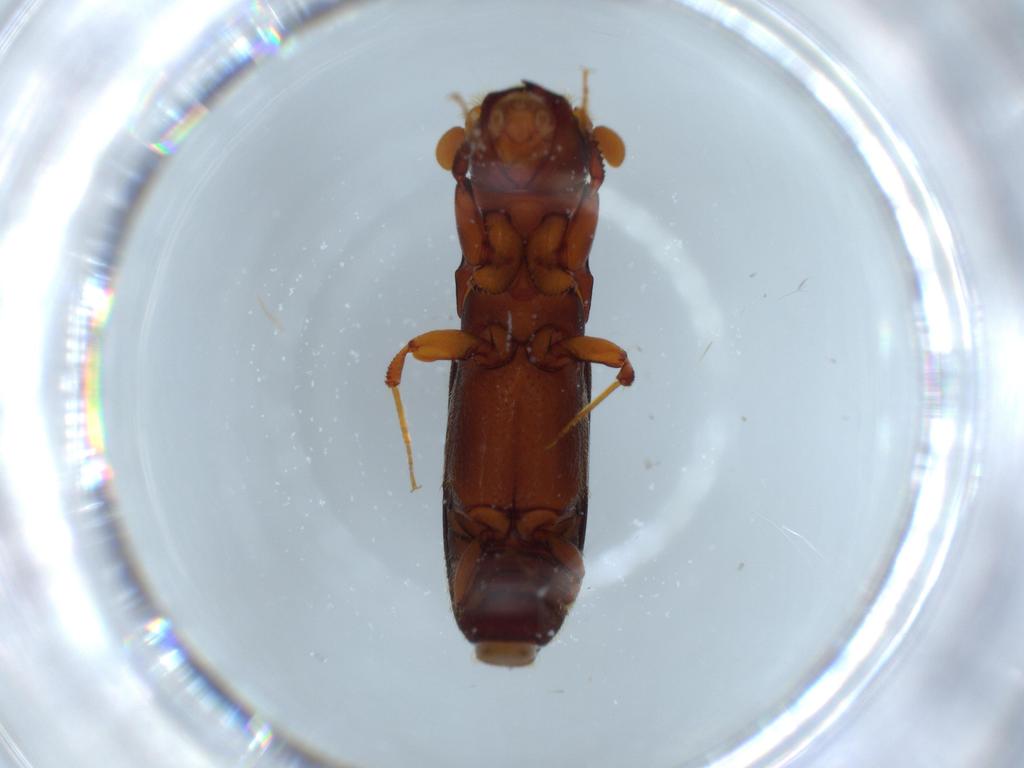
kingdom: Animalia
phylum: Arthropoda
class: Insecta
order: Coleoptera
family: Curculionidae
